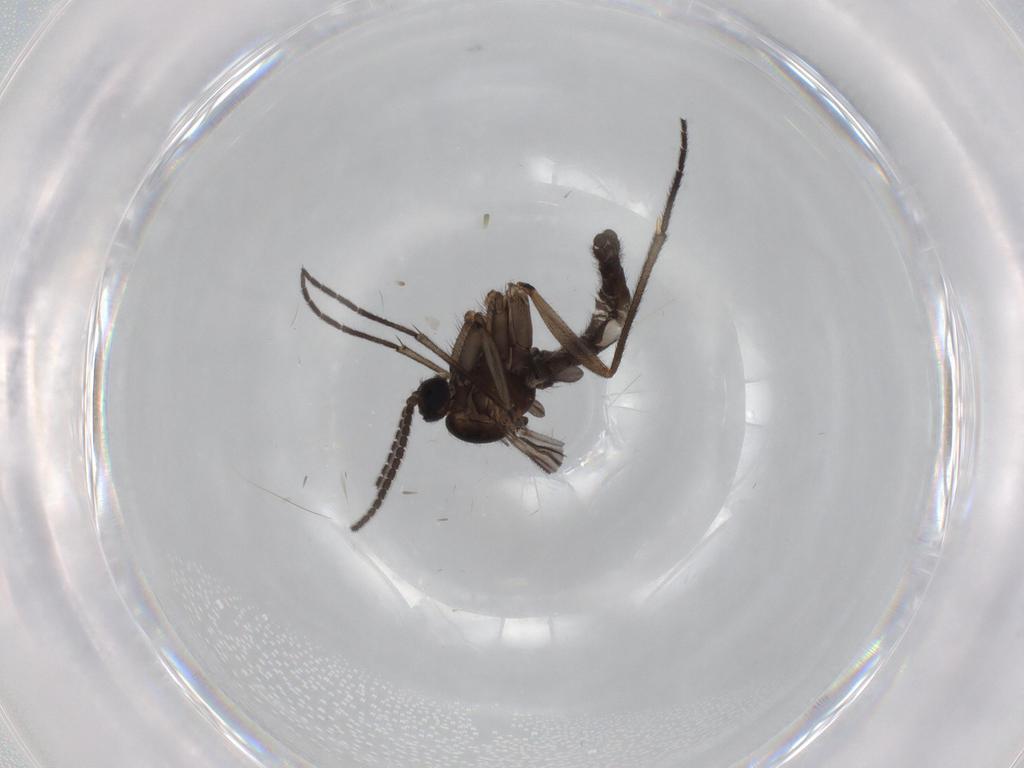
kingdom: Animalia
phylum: Arthropoda
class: Insecta
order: Diptera
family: Sciaridae
